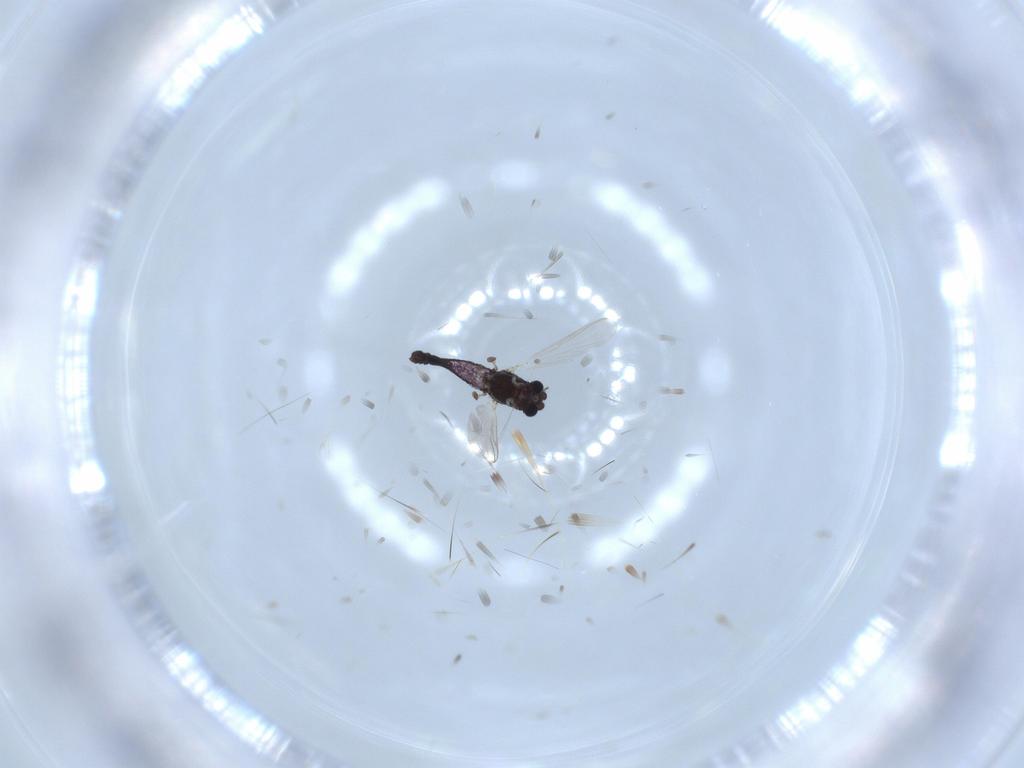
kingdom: Animalia
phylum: Arthropoda
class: Insecta
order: Diptera
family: Chironomidae
